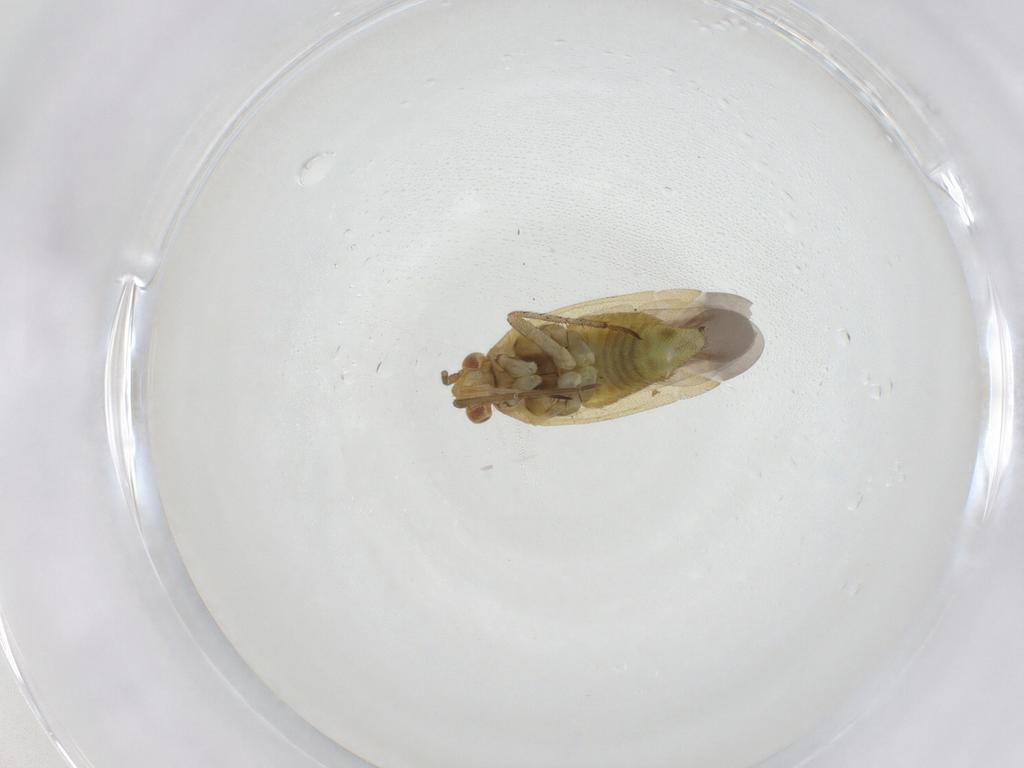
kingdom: Animalia
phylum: Arthropoda
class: Insecta
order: Hemiptera
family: Miridae
